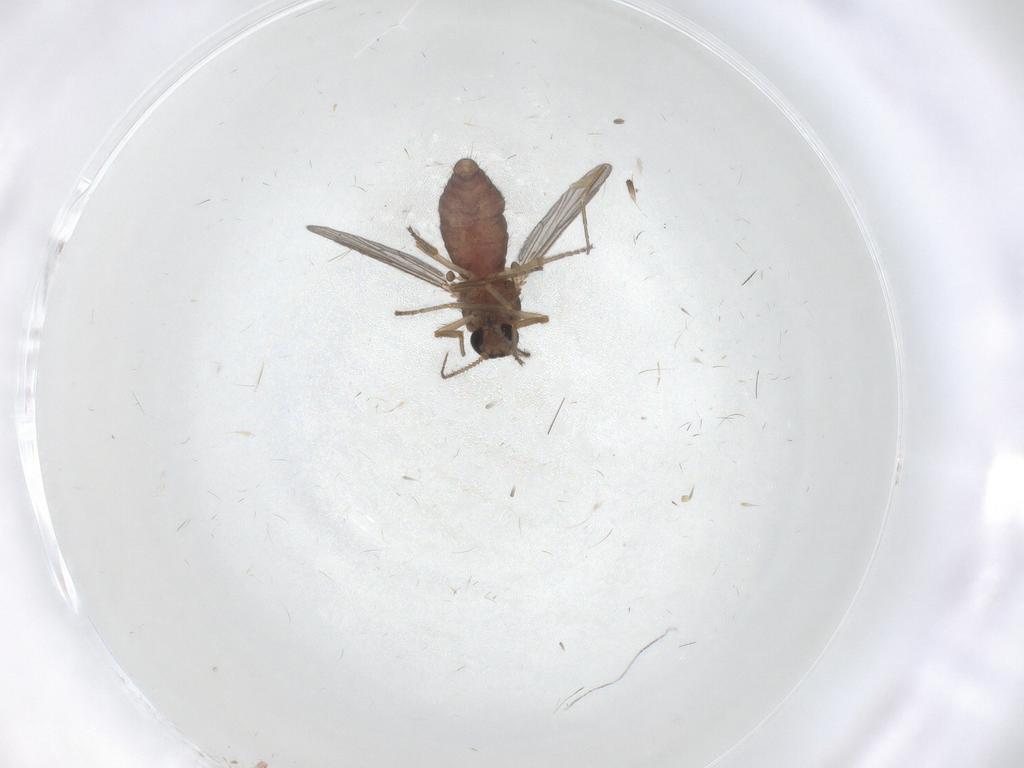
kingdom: Animalia
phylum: Arthropoda
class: Insecta
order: Diptera
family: Ceratopogonidae
